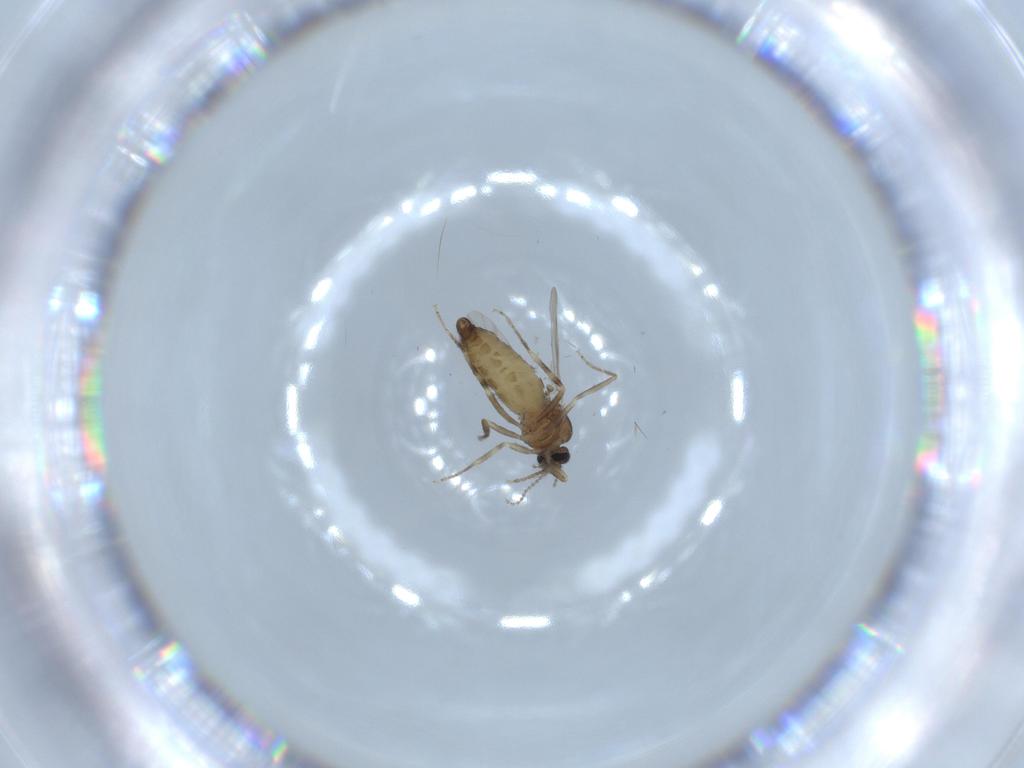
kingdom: Animalia
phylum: Arthropoda
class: Insecta
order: Diptera
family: Ceratopogonidae
